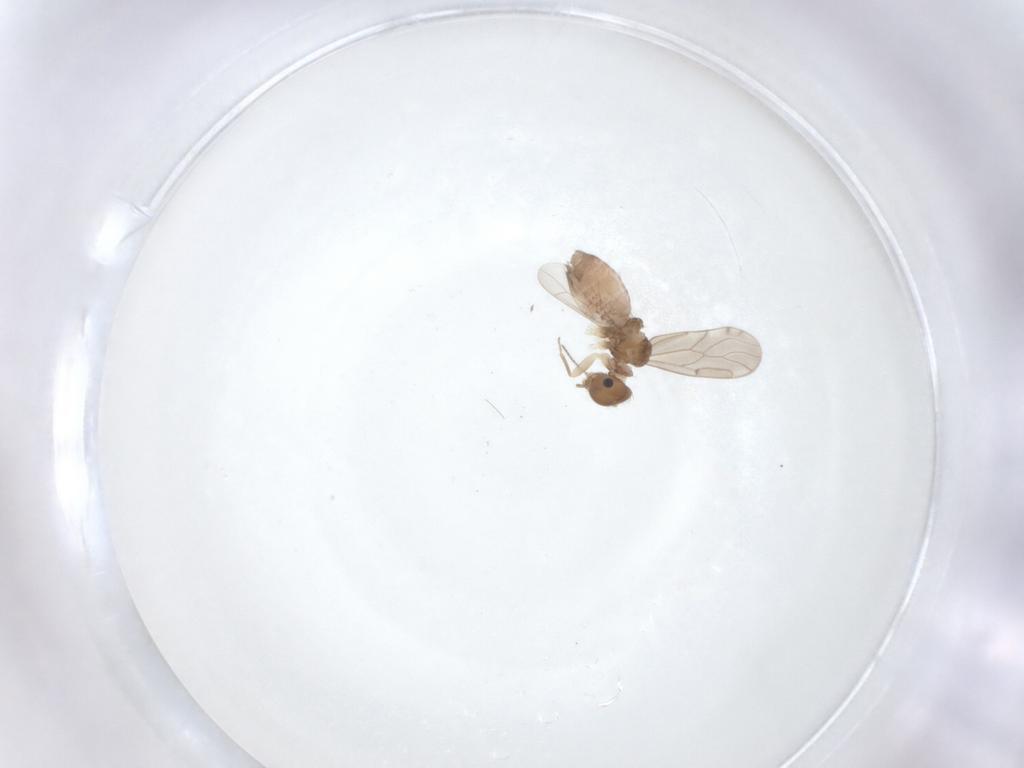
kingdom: Animalia
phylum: Arthropoda
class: Insecta
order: Psocodea
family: Ectopsocidae
